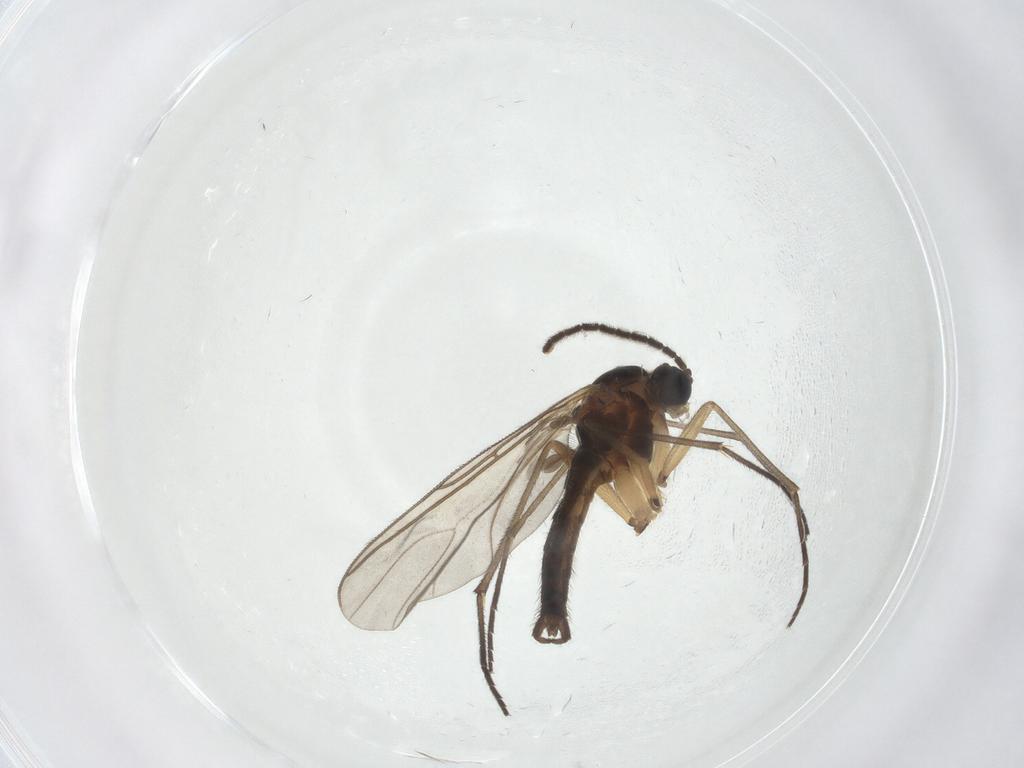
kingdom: Animalia
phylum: Arthropoda
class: Insecta
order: Diptera
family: Sciaridae
